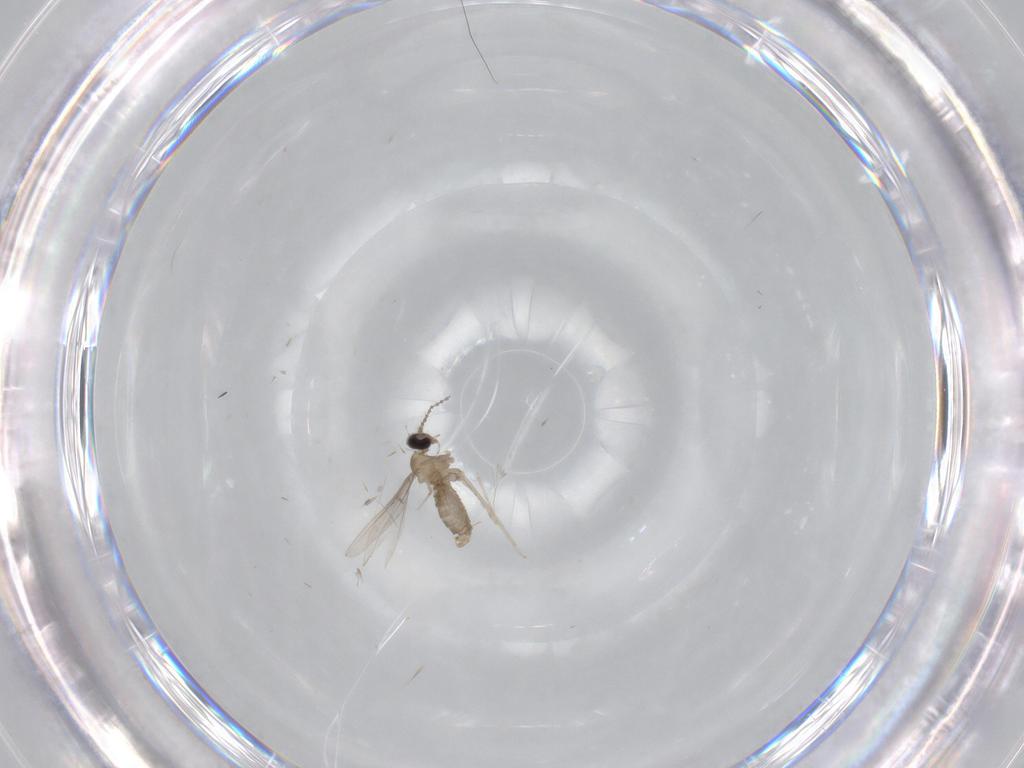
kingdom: Animalia
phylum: Arthropoda
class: Insecta
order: Diptera
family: Cecidomyiidae
